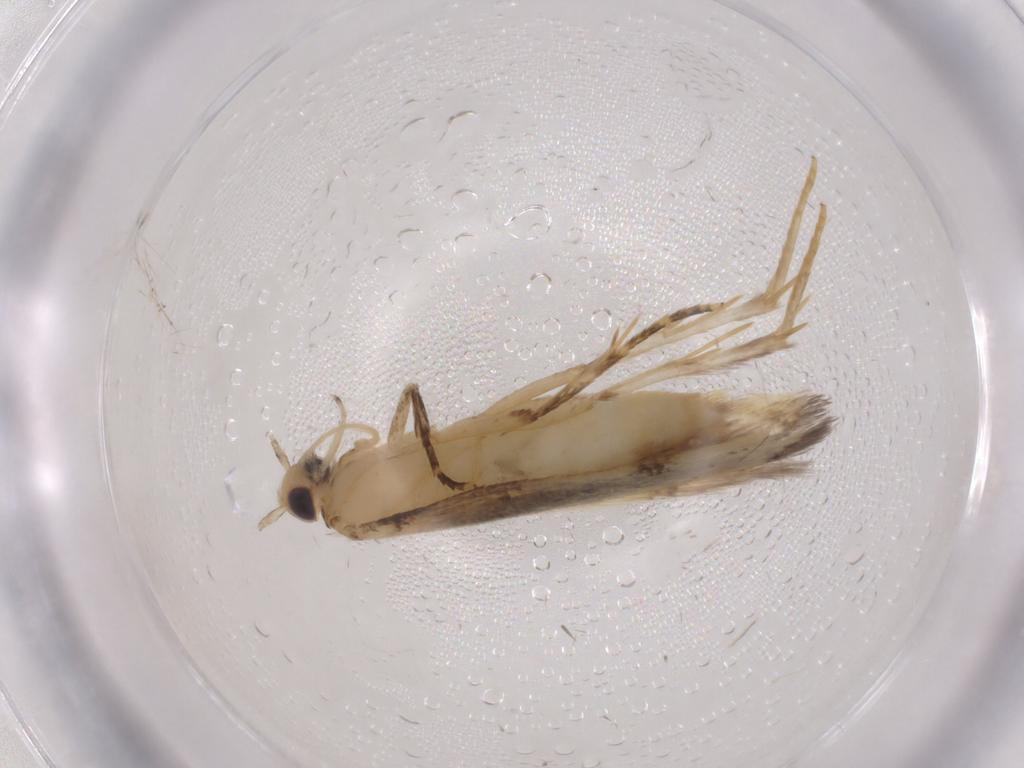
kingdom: Animalia
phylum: Arthropoda
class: Insecta
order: Lepidoptera
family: Autostichidae
